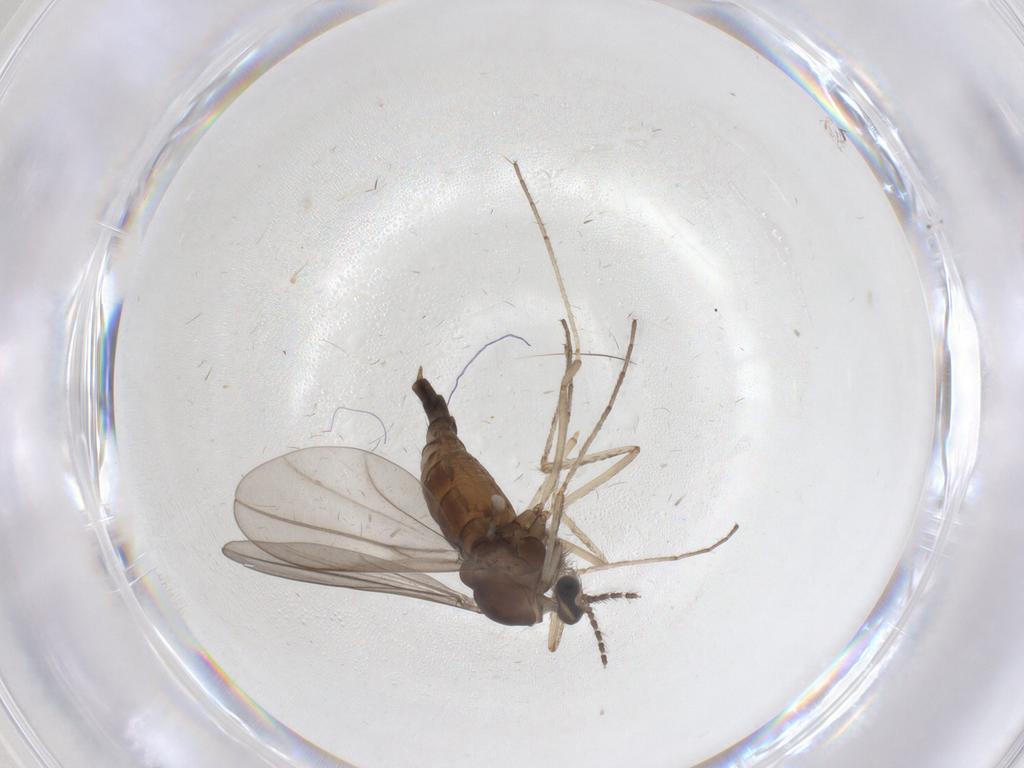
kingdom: Animalia
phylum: Arthropoda
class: Insecta
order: Diptera
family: Cecidomyiidae
